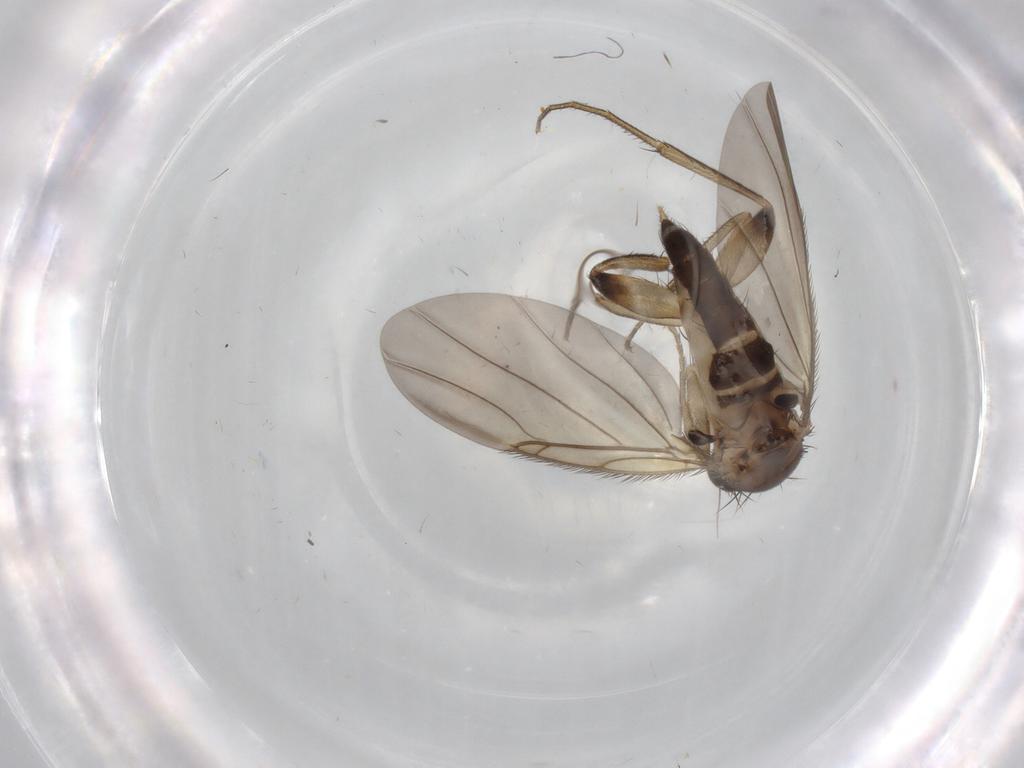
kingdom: Animalia
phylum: Arthropoda
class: Insecta
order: Diptera
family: Phoridae
